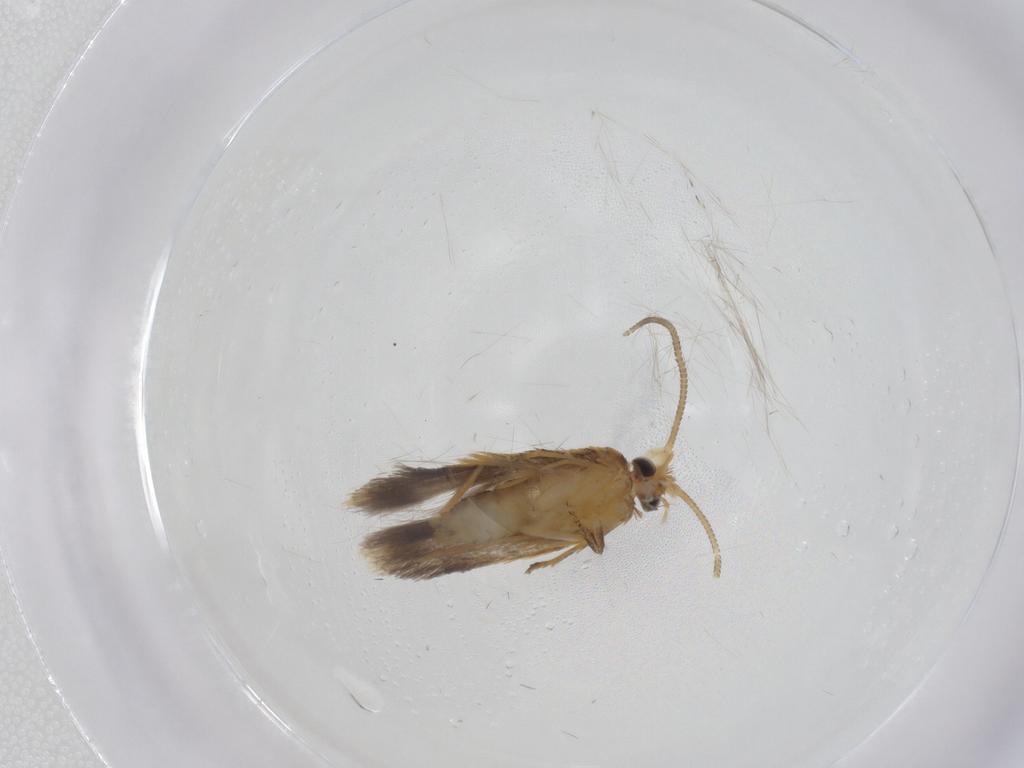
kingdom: Animalia
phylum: Arthropoda
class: Insecta
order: Lepidoptera
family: Nepticulidae
